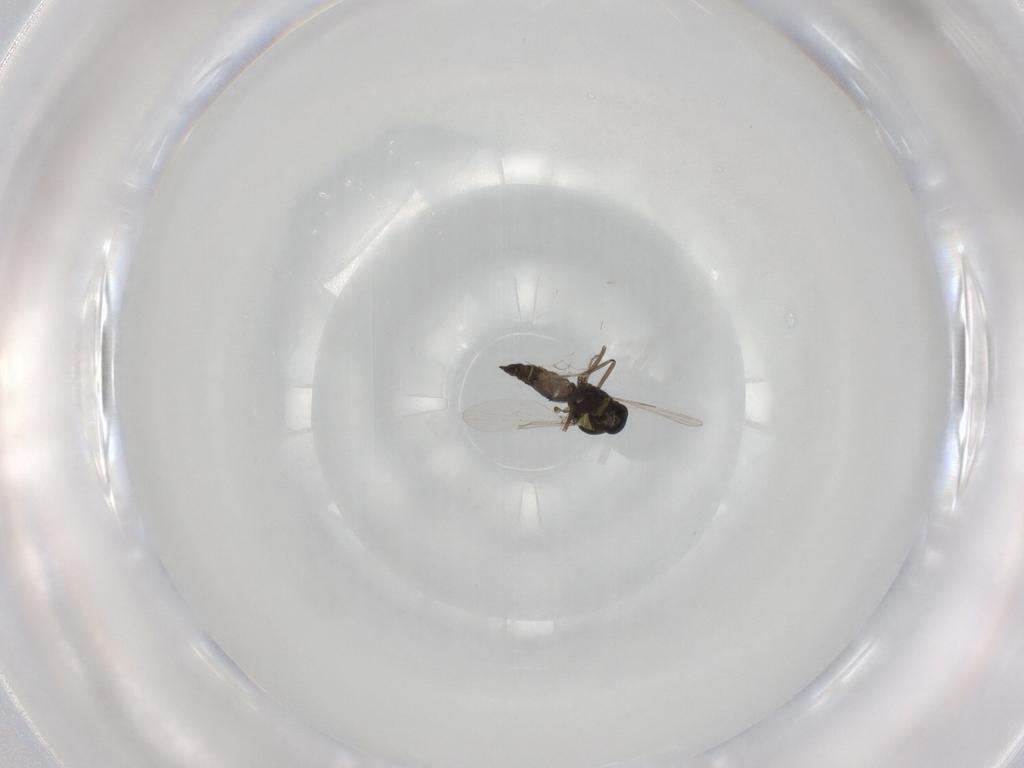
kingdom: Animalia
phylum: Arthropoda
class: Insecta
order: Diptera
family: Ceratopogonidae
